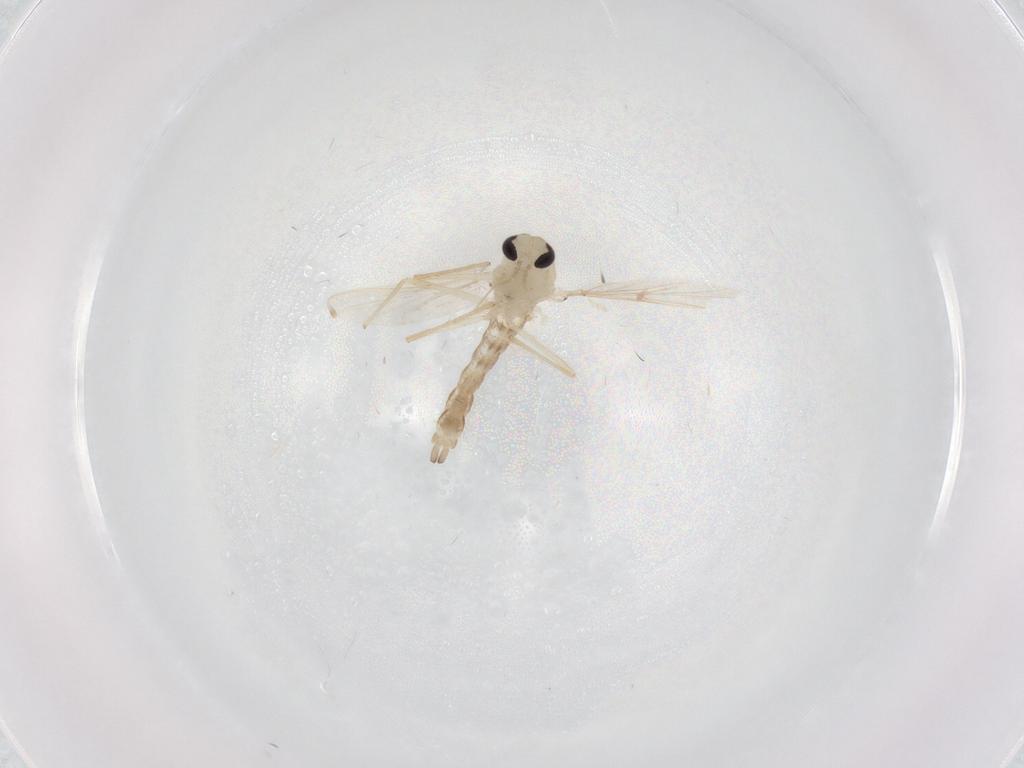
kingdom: Animalia
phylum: Arthropoda
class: Insecta
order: Diptera
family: Chironomidae
